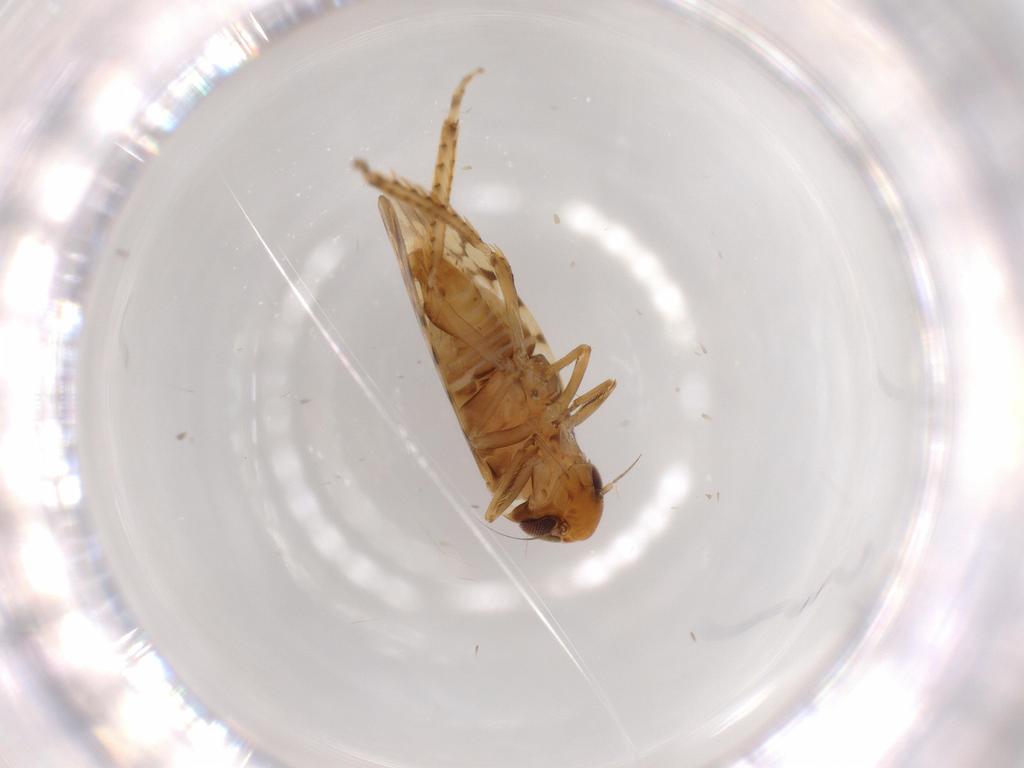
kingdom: Animalia
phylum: Arthropoda
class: Insecta
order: Hemiptera
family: Cicadellidae
